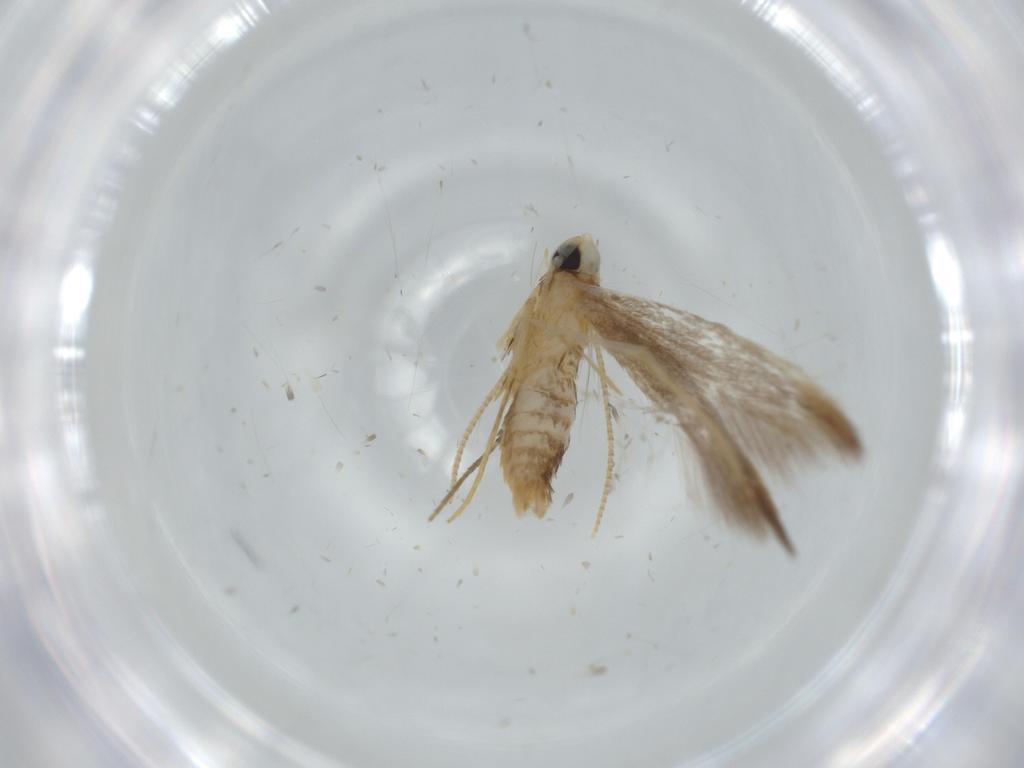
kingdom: Animalia
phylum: Arthropoda
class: Insecta
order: Lepidoptera
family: Tineidae
